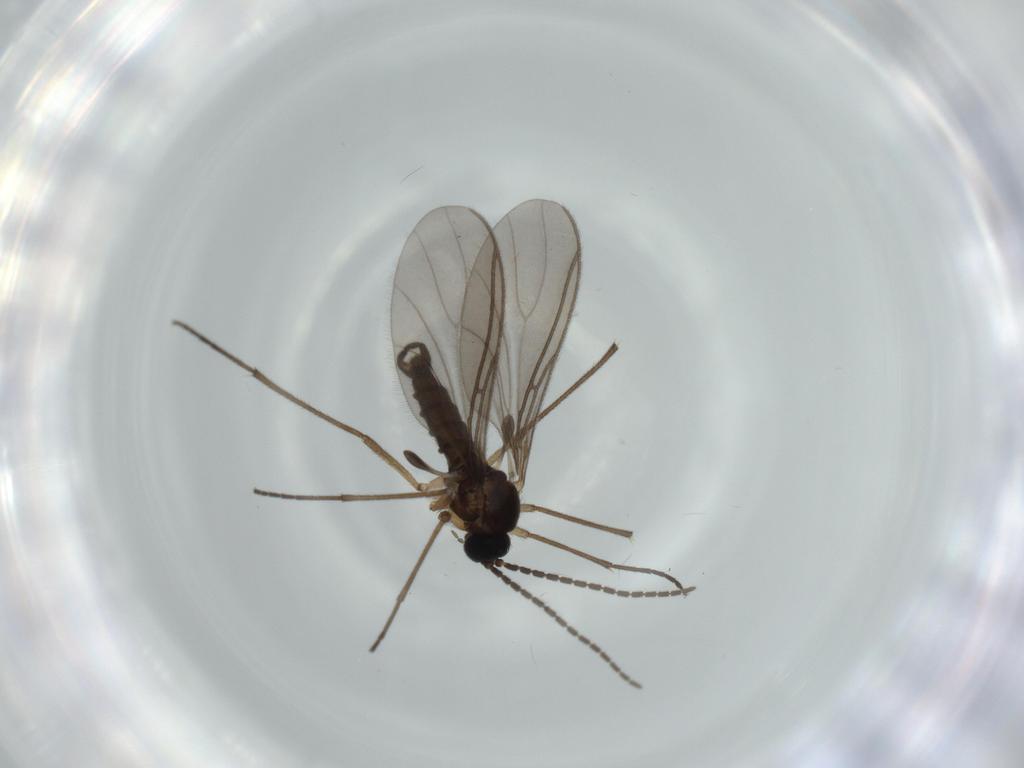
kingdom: Animalia
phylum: Arthropoda
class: Insecta
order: Diptera
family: Sciaridae
